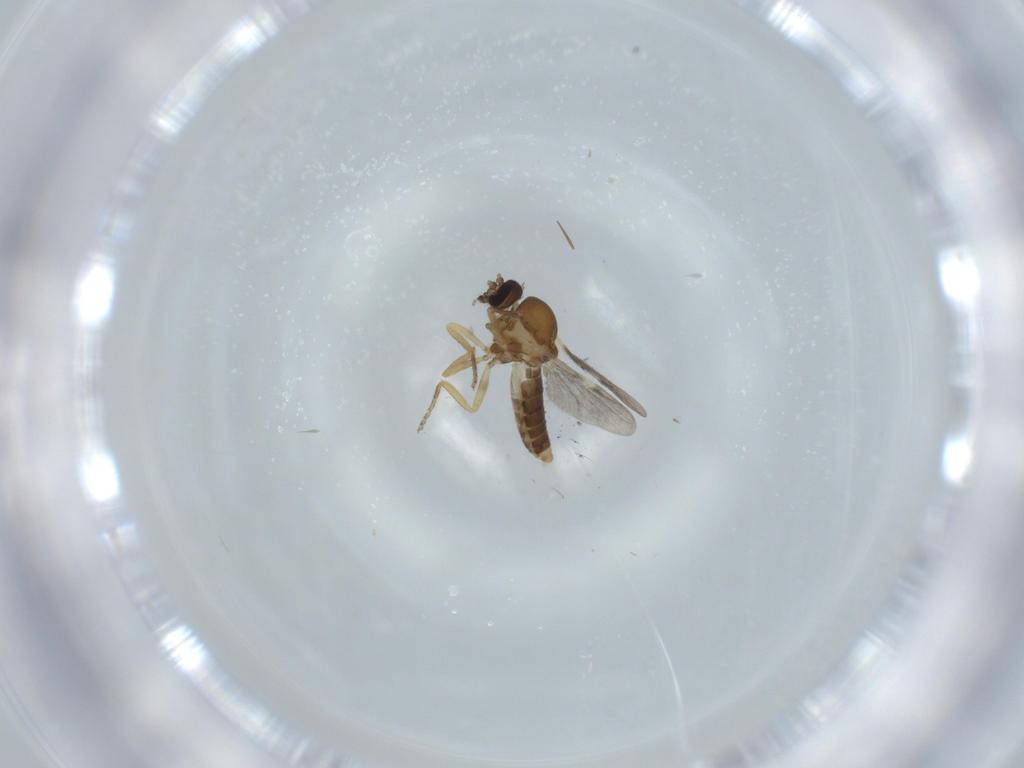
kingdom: Animalia
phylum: Arthropoda
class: Insecta
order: Diptera
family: Ceratopogonidae
